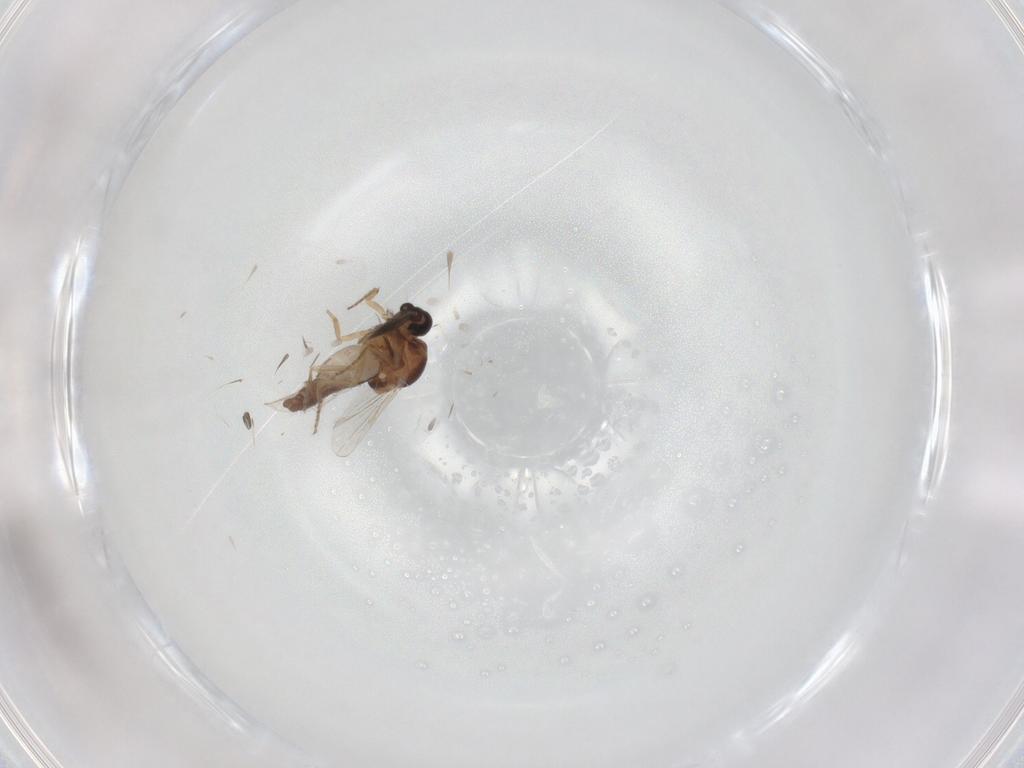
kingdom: Animalia
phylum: Arthropoda
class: Insecta
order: Diptera
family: Ceratopogonidae
